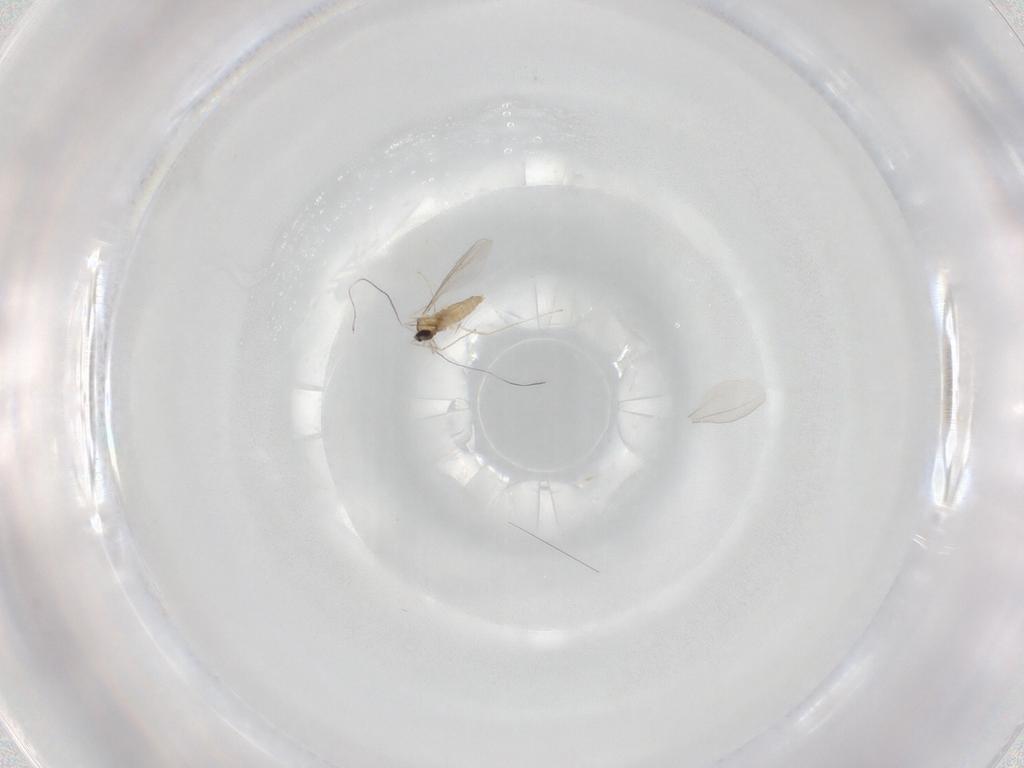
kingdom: Animalia
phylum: Arthropoda
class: Insecta
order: Diptera
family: Cecidomyiidae
